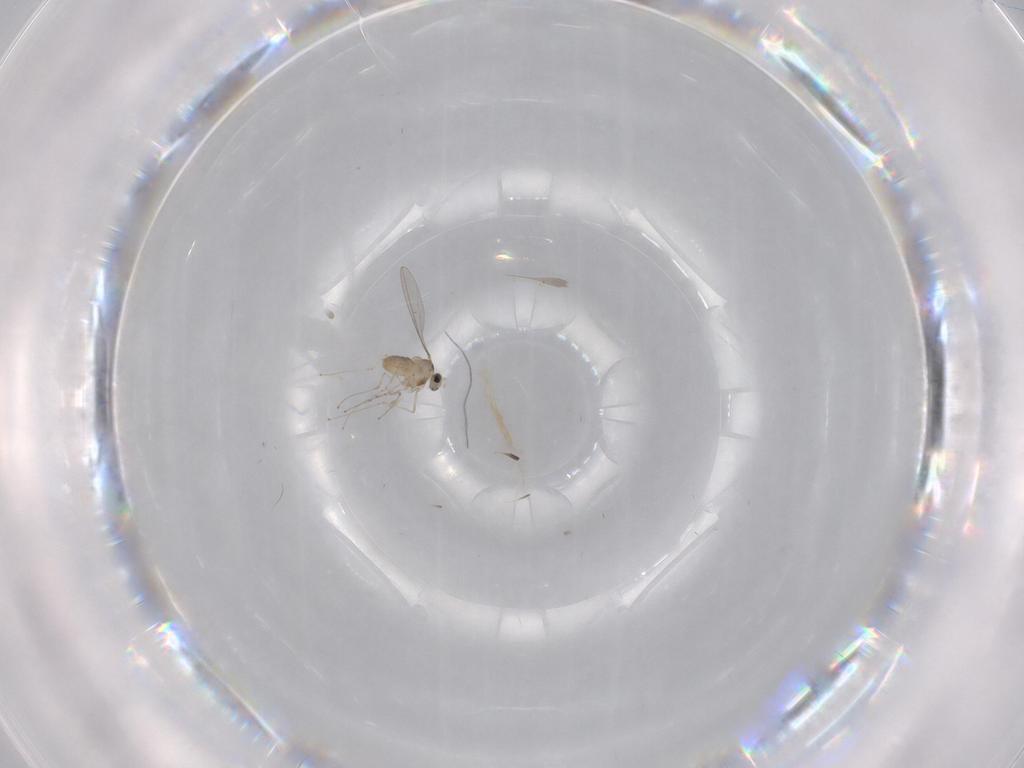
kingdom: Animalia
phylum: Arthropoda
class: Insecta
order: Diptera
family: Cecidomyiidae
